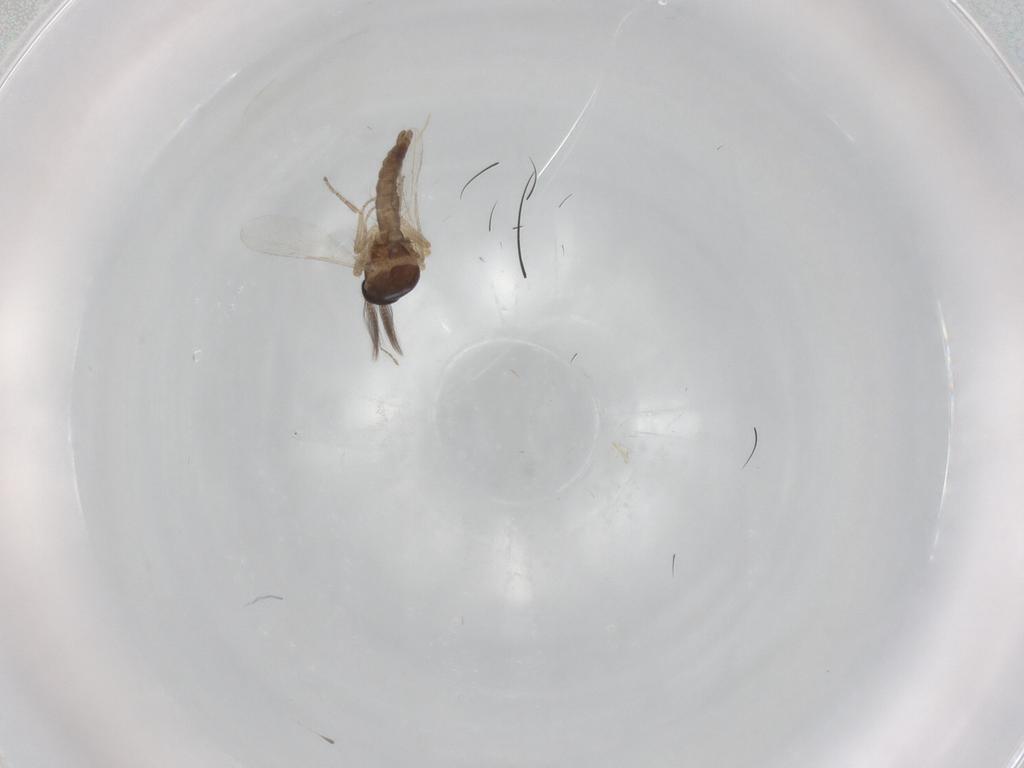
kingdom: Animalia
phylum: Arthropoda
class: Insecta
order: Diptera
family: Ceratopogonidae
